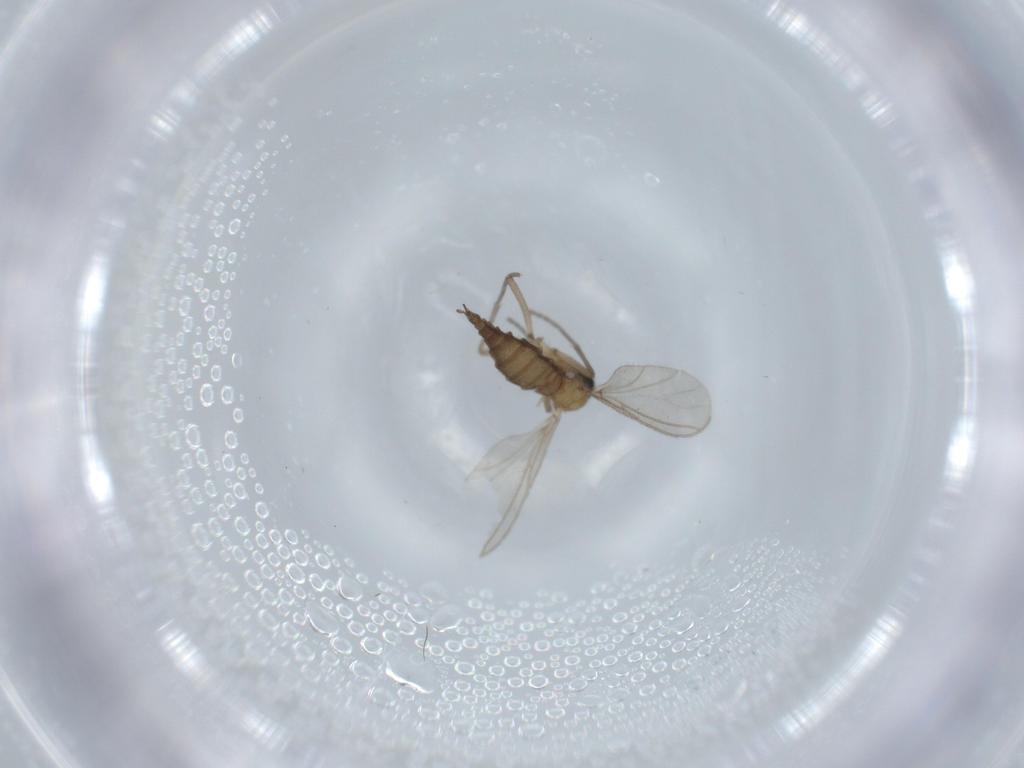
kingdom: Animalia
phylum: Arthropoda
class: Insecta
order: Diptera
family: Phoridae
